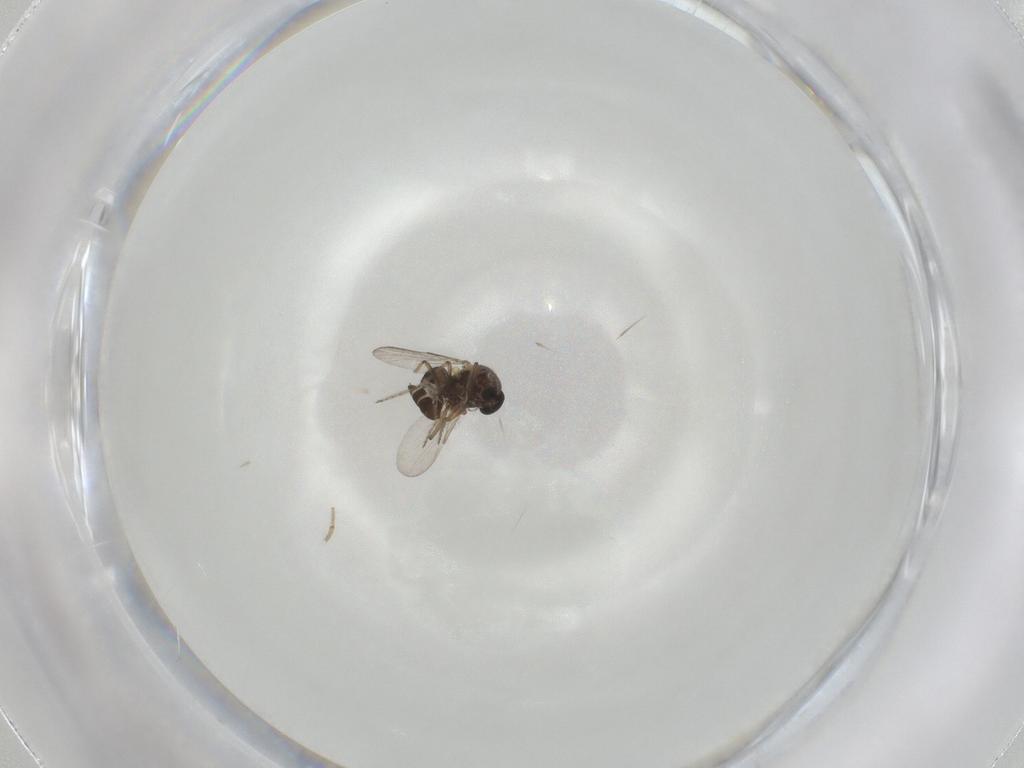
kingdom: Animalia
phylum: Arthropoda
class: Insecta
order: Diptera
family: Ceratopogonidae
